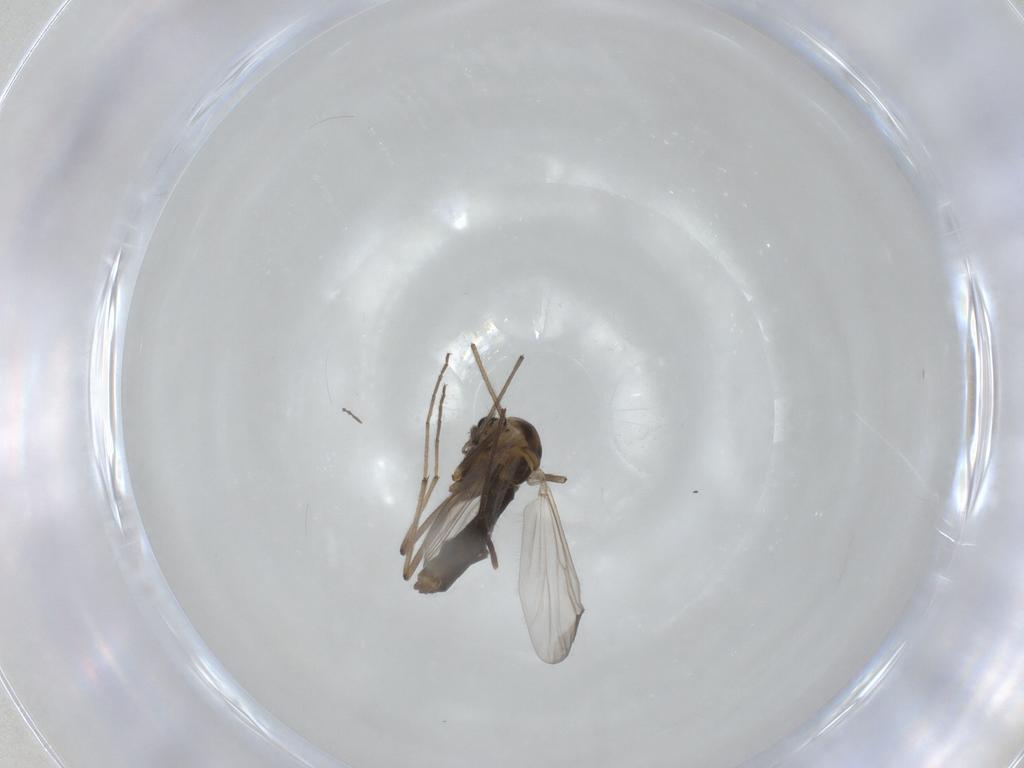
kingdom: Animalia
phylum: Arthropoda
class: Insecta
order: Diptera
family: Chironomidae
